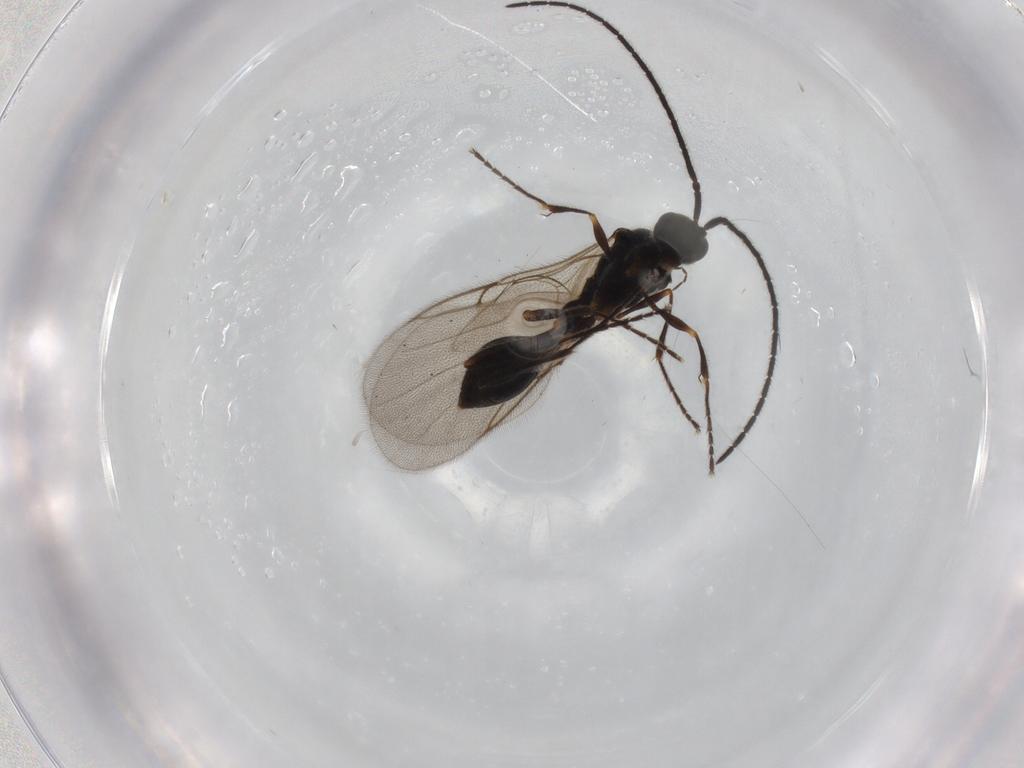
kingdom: Animalia
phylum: Arthropoda
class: Insecta
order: Hymenoptera
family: Diapriidae
